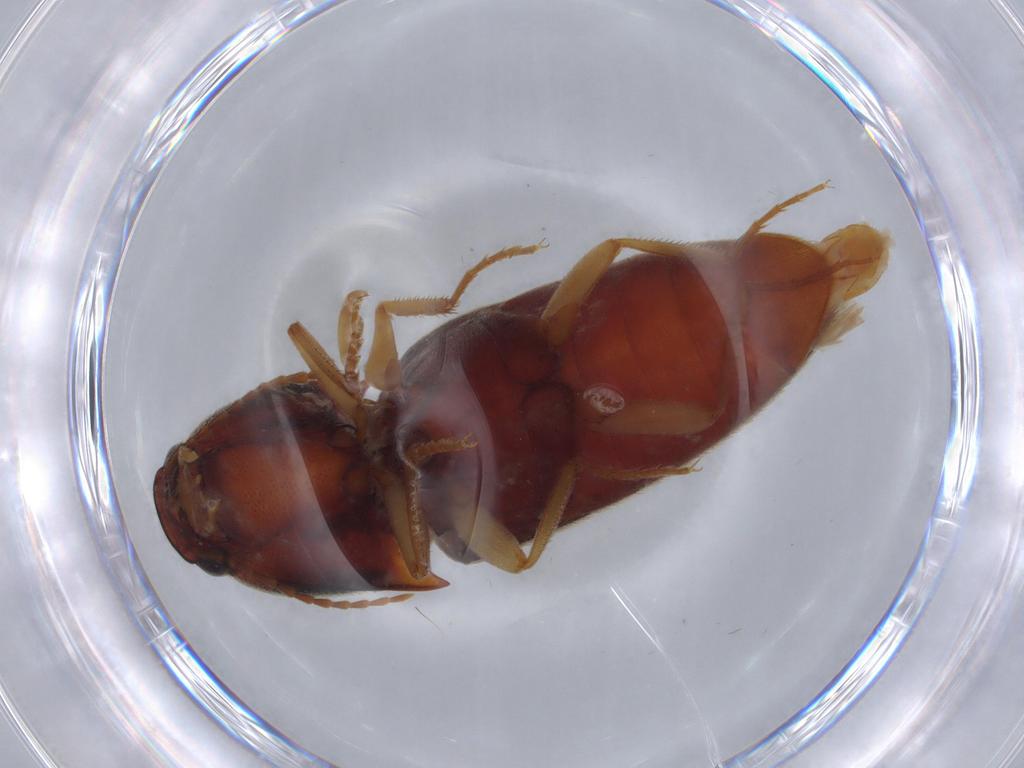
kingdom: Animalia
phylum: Arthropoda
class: Insecta
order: Coleoptera
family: Elateridae
